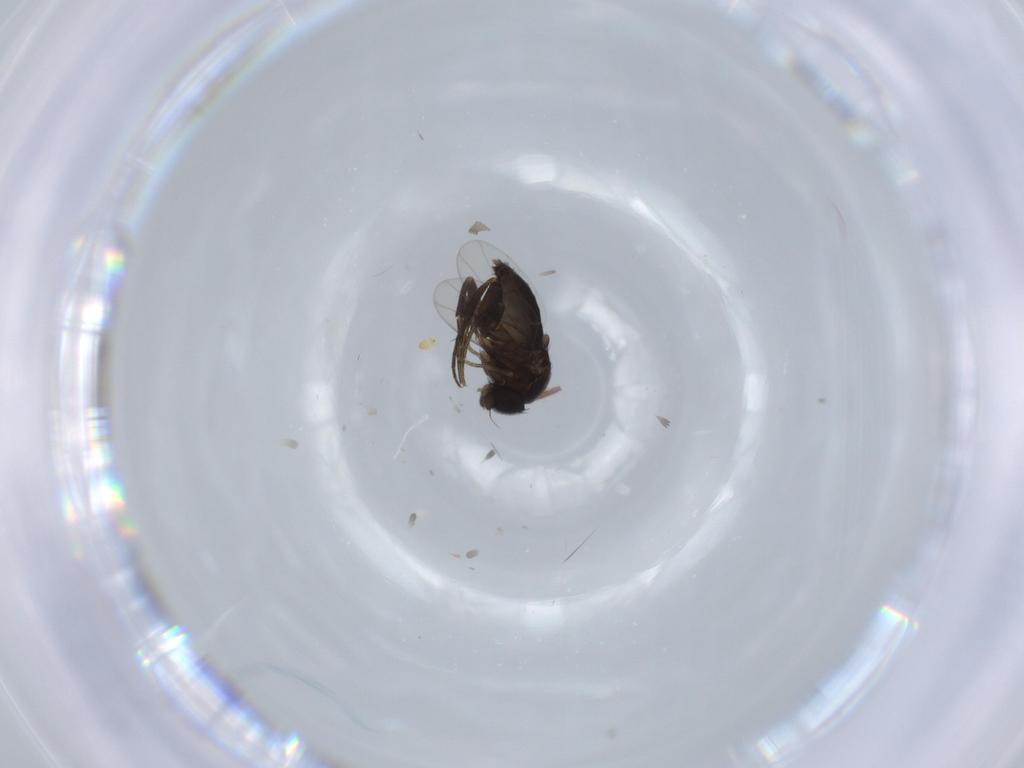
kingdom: Animalia
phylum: Arthropoda
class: Insecta
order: Diptera
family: Phoridae
